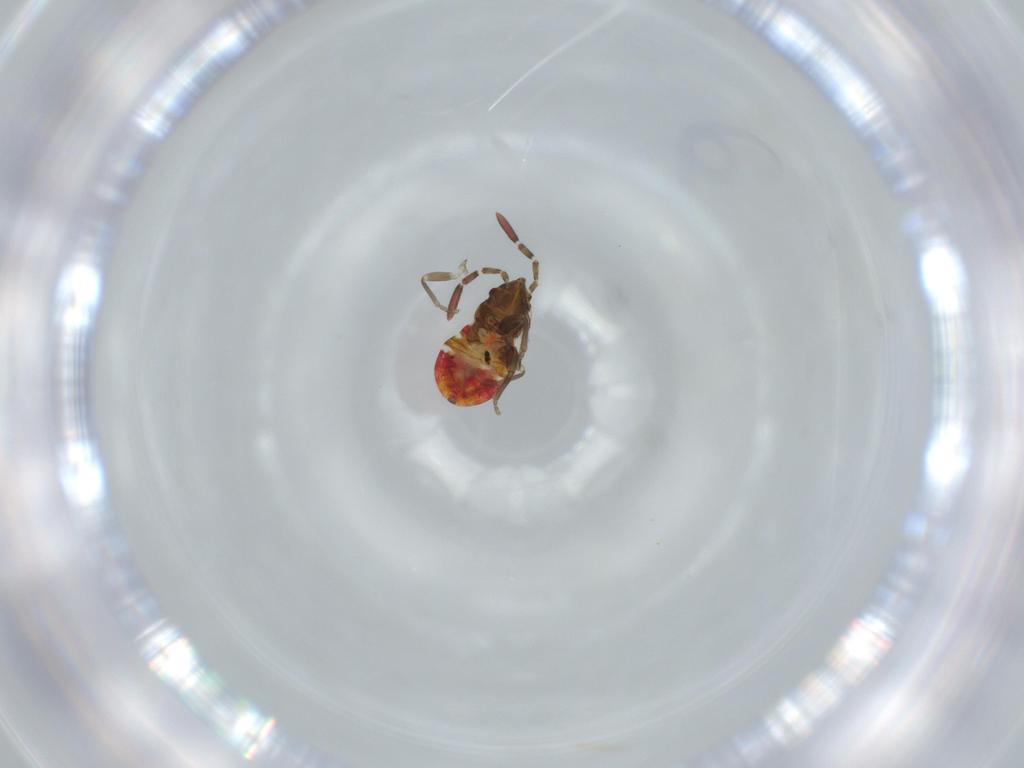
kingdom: Animalia
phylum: Arthropoda
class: Insecta
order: Hemiptera
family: Rhyparochromidae
